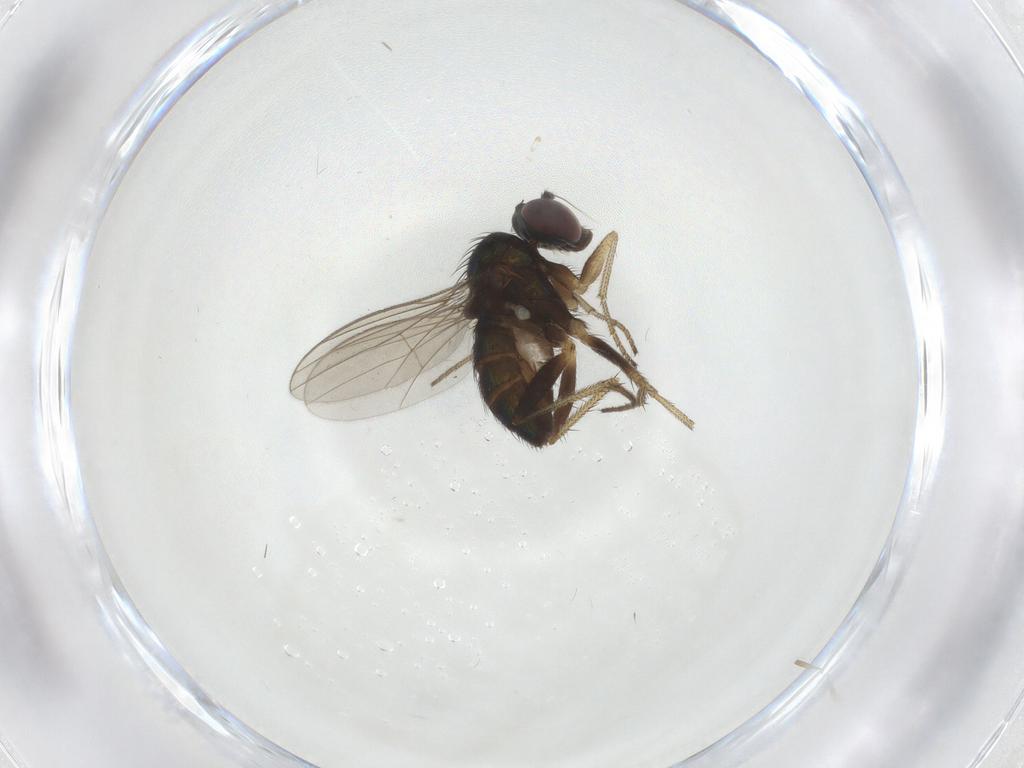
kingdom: Animalia
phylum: Arthropoda
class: Insecta
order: Diptera
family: Dolichopodidae
